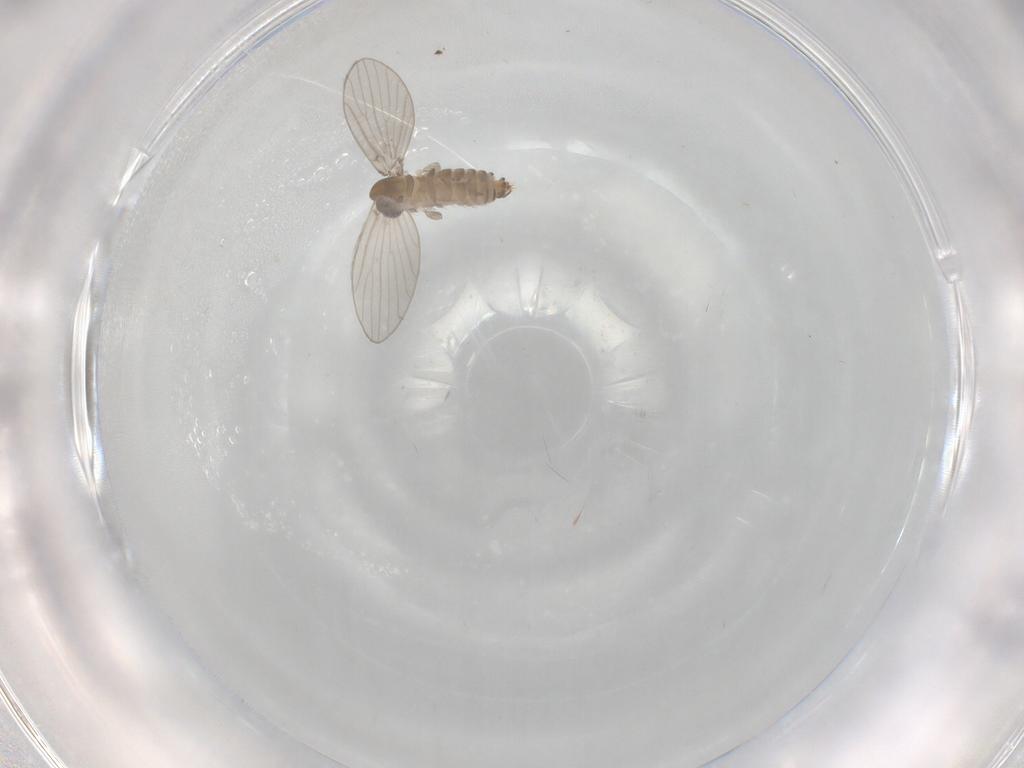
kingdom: Animalia
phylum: Arthropoda
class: Insecta
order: Diptera
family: Psychodidae
